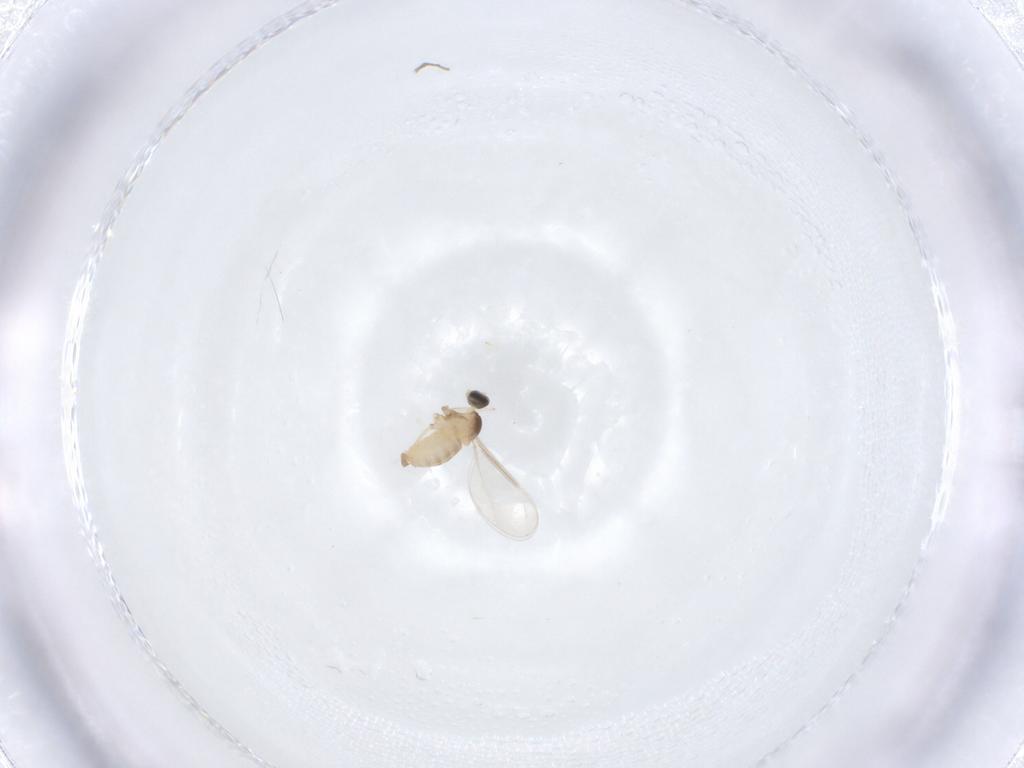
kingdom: Animalia
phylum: Arthropoda
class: Insecta
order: Diptera
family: Cecidomyiidae
